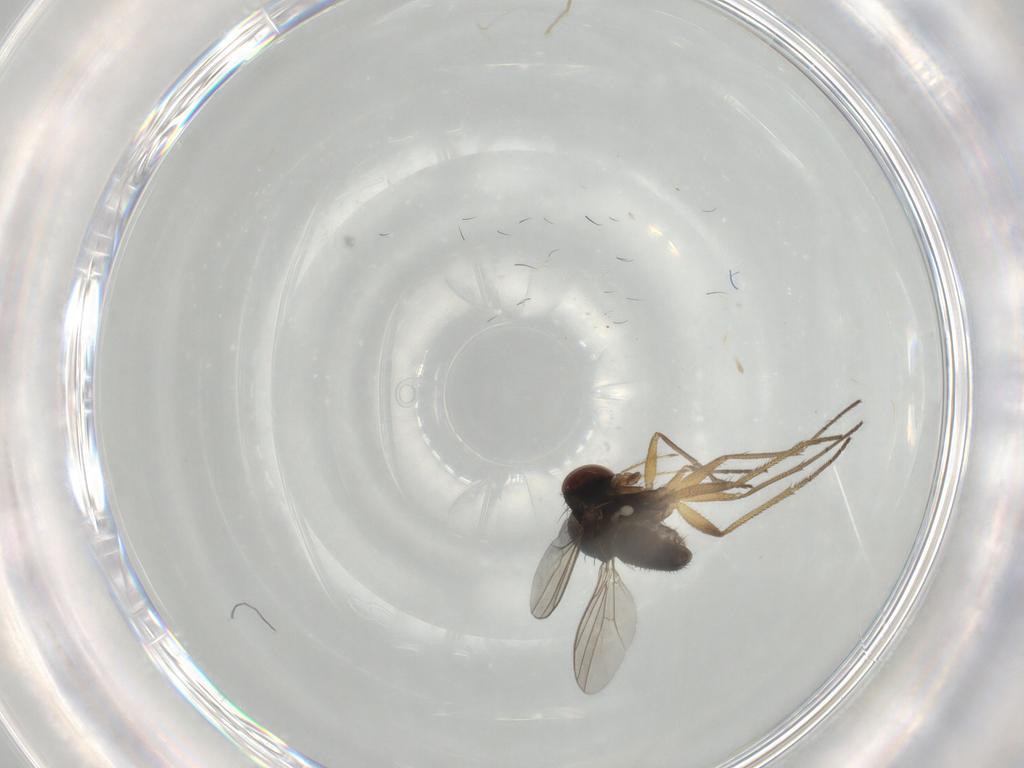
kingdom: Animalia
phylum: Arthropoda
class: Insecta
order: Diptera
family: Dolichopodidae
